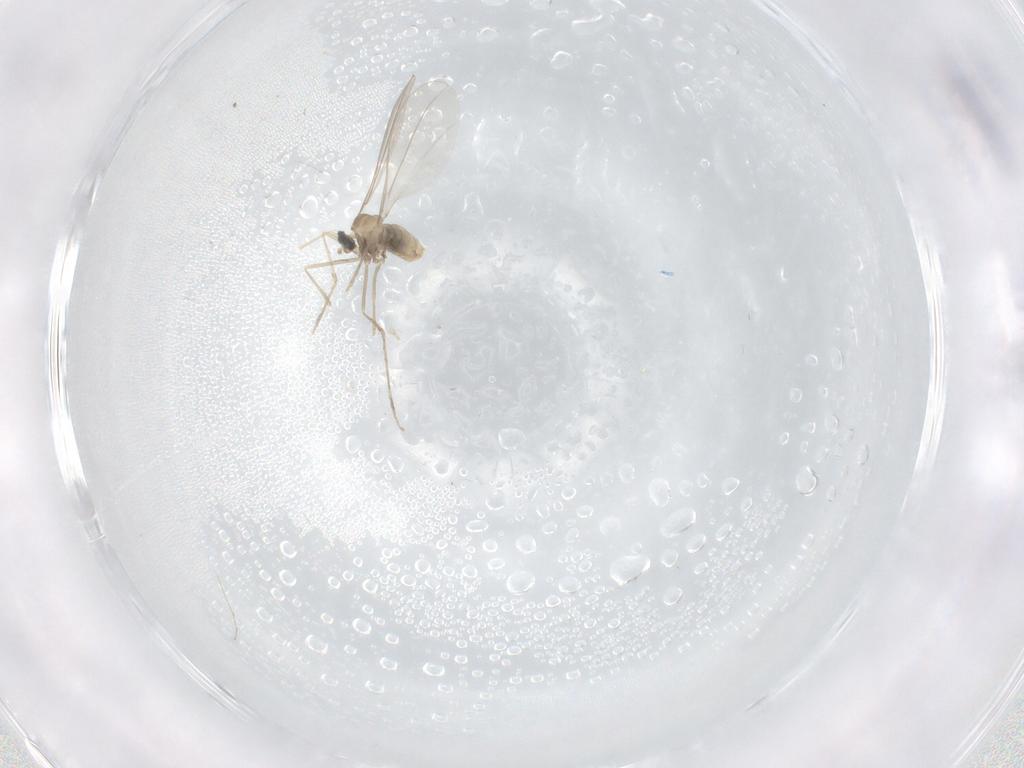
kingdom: Animalia
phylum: Arthropoda
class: Insecta
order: Diptera
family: Cecidomyiidae
